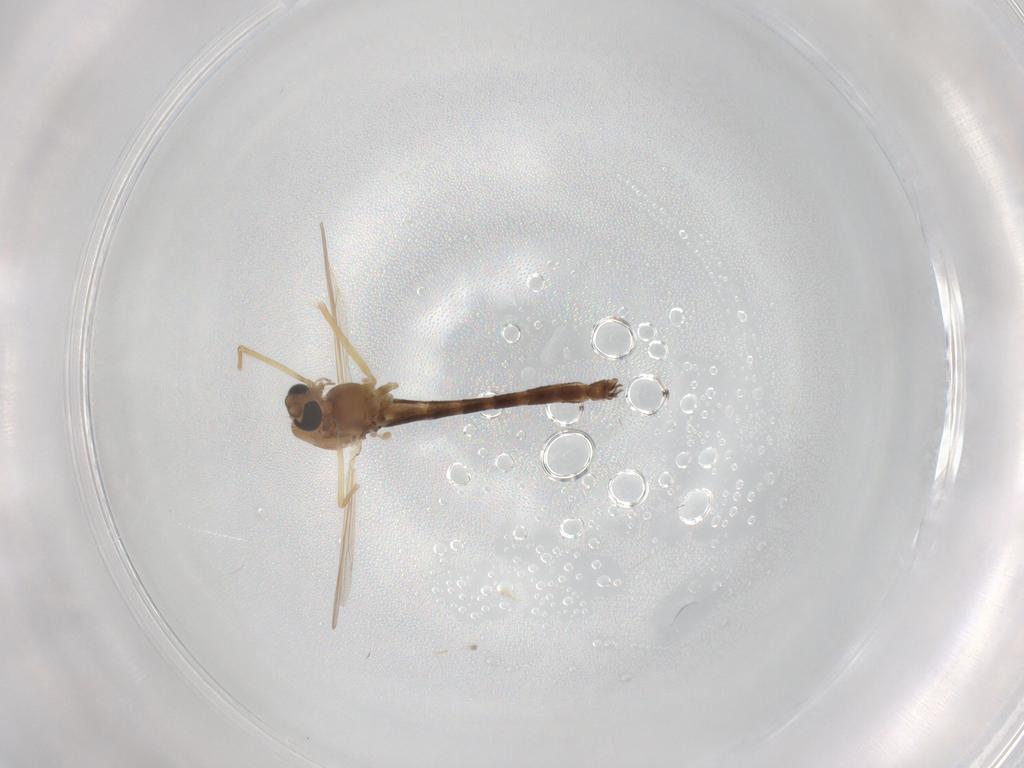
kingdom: Animalia
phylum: Arthropoda
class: Insecta
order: Diptera
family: Chironomidae
